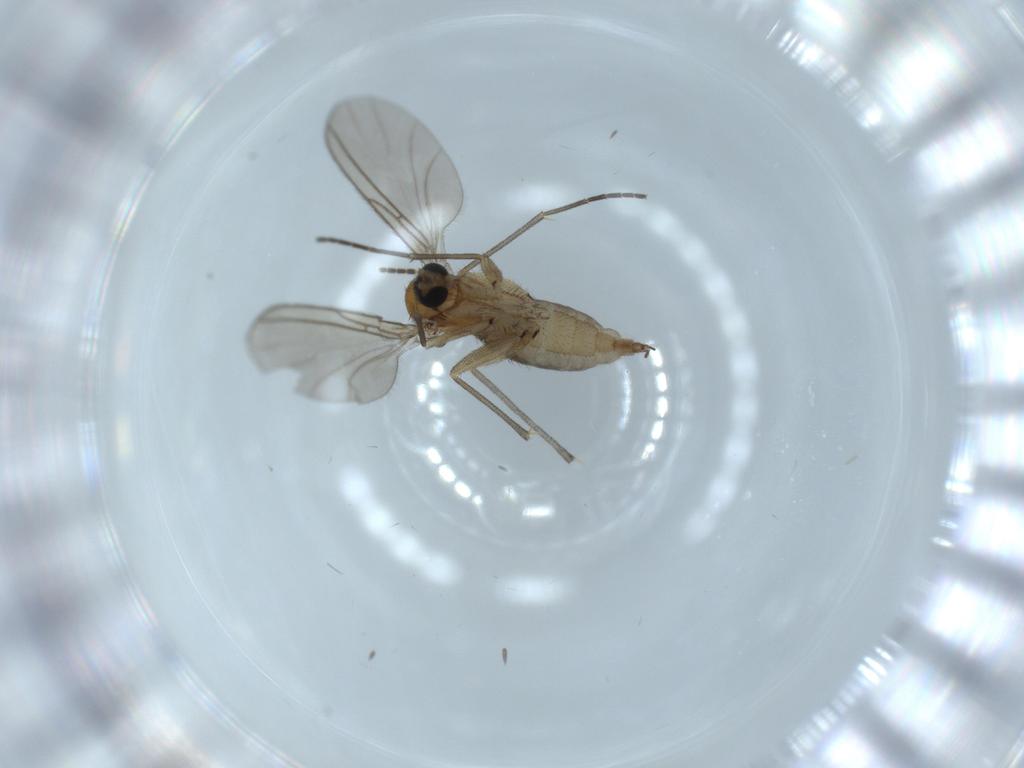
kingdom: Animalia
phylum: Arthropoda
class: Insecta
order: Diptera
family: Sciaridae
